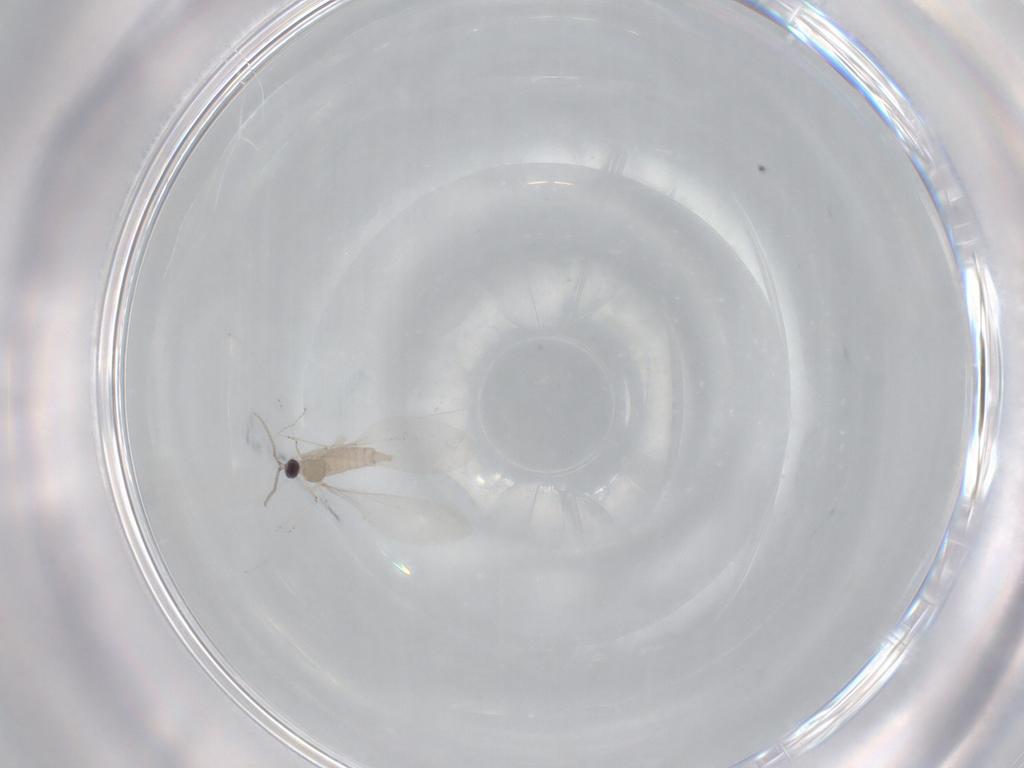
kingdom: Animalia
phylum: Arthropoda
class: Insecta
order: Diptera
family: Cecidomyiidae
